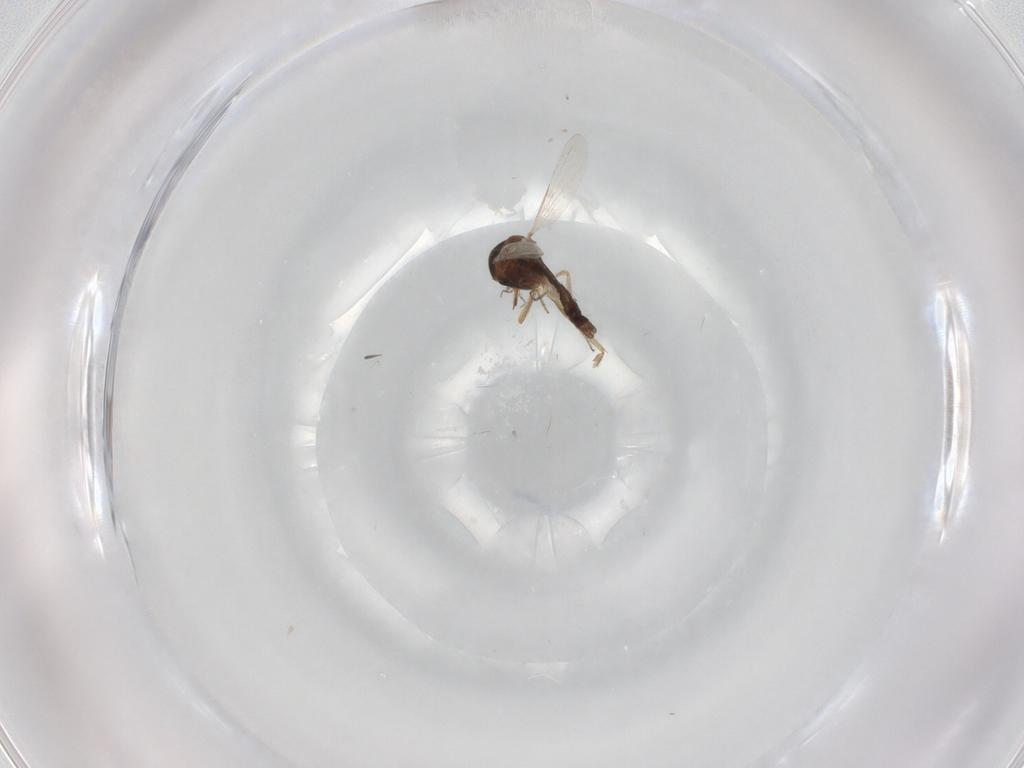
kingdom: Animalia
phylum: Arthropoda
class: Insecta
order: Diptera
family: Ceratopogonidae
